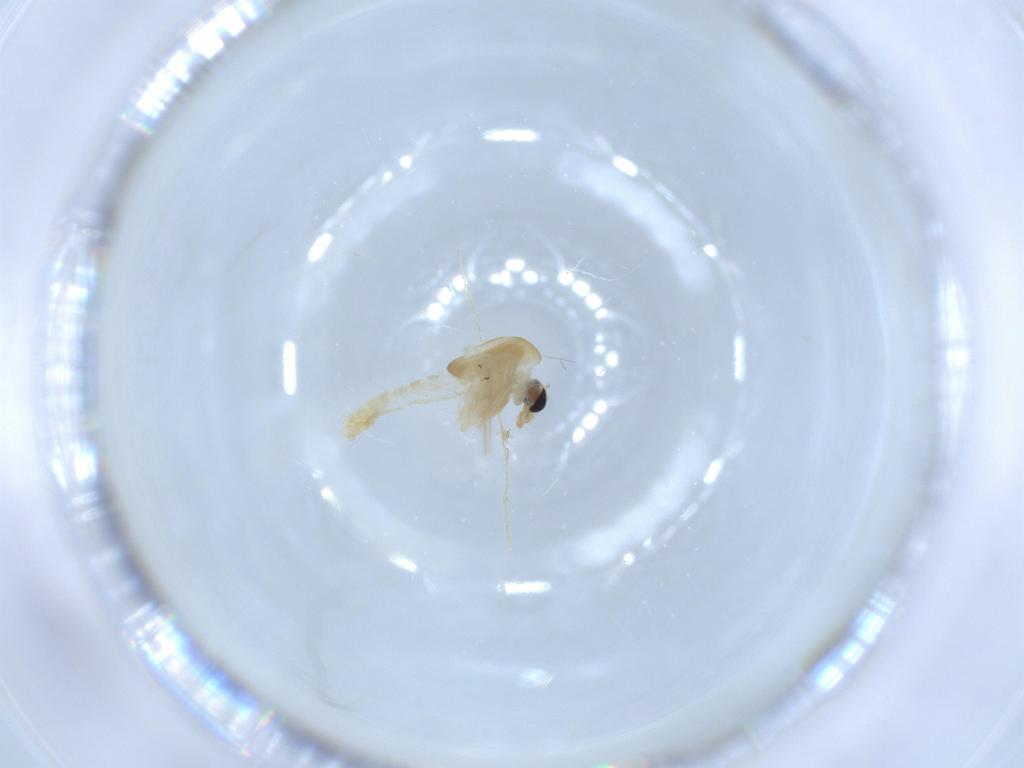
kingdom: Animalia
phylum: Arthropoda
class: Insecta
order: Diptera
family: Chironomidae
